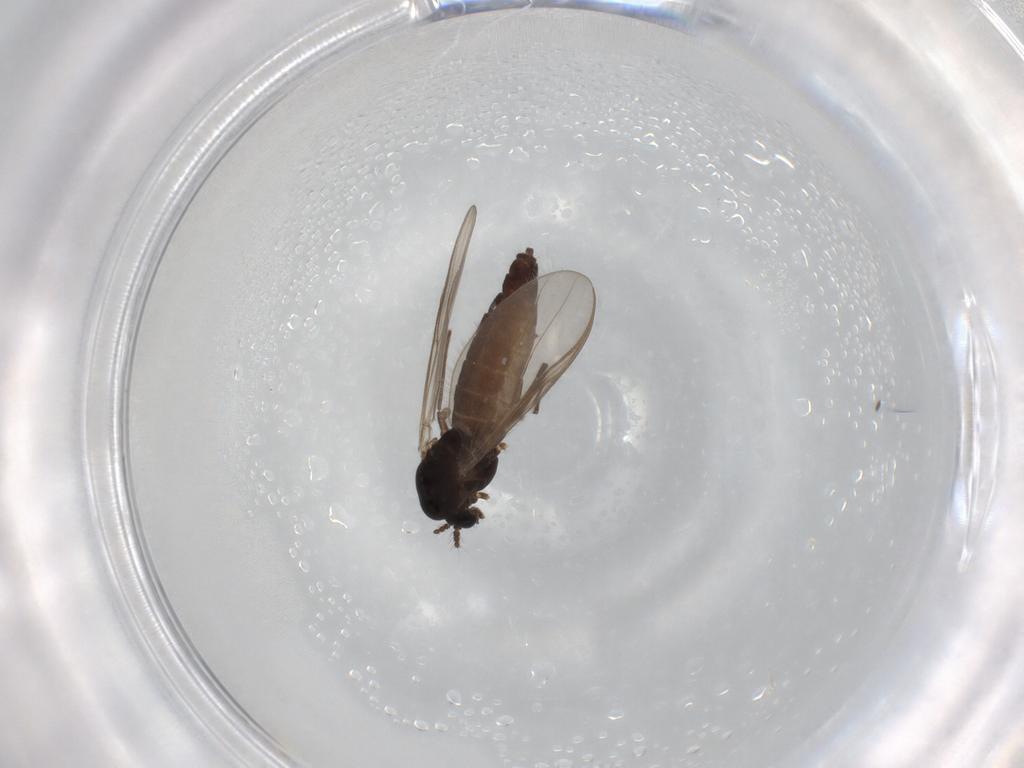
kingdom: Animalia
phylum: Arthropoda
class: Insecta
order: Diptera
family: Chironomidae
